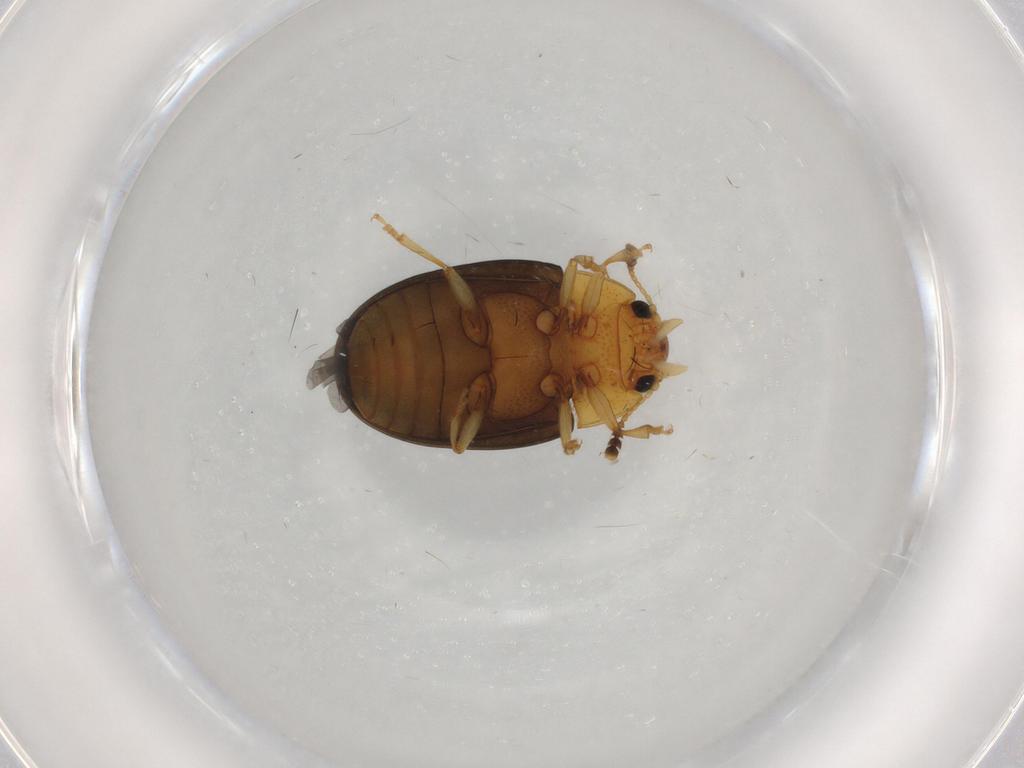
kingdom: Animalia
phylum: Arthropoda
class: Insecta
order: Coleoptera
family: Erotylidae
